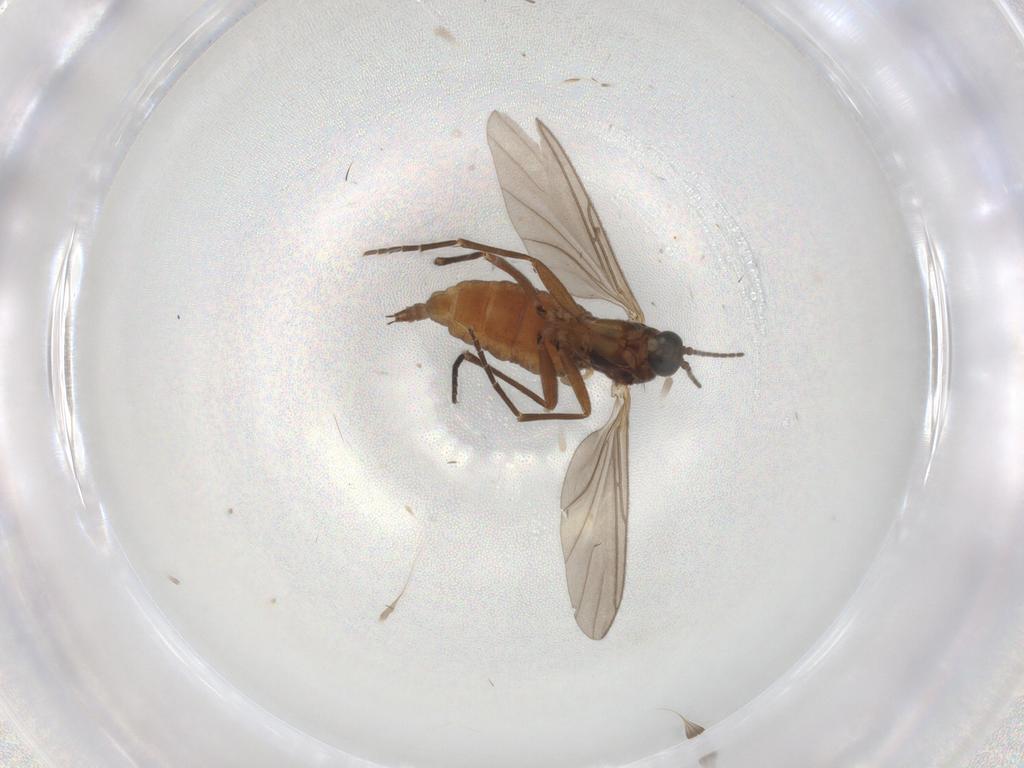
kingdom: Animalia
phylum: Arthropoda
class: Insecta
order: Diptera
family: Sciaridae
